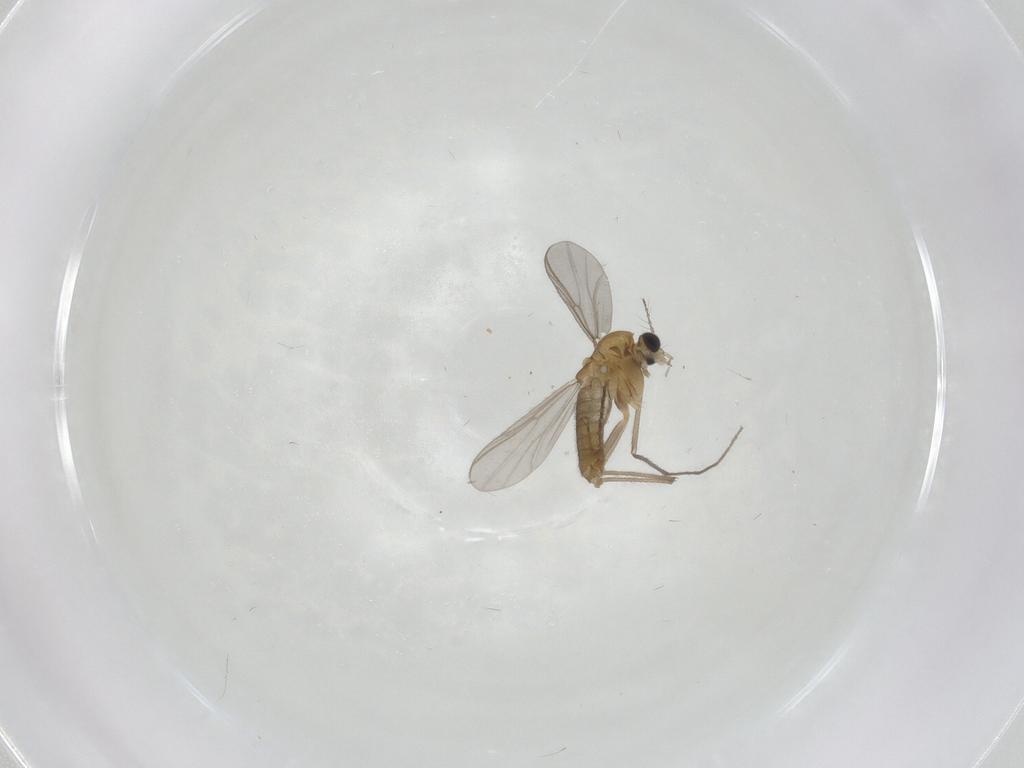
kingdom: Animalia
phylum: Arthropoda
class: Insecta
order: Diptera
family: Chironomidae
